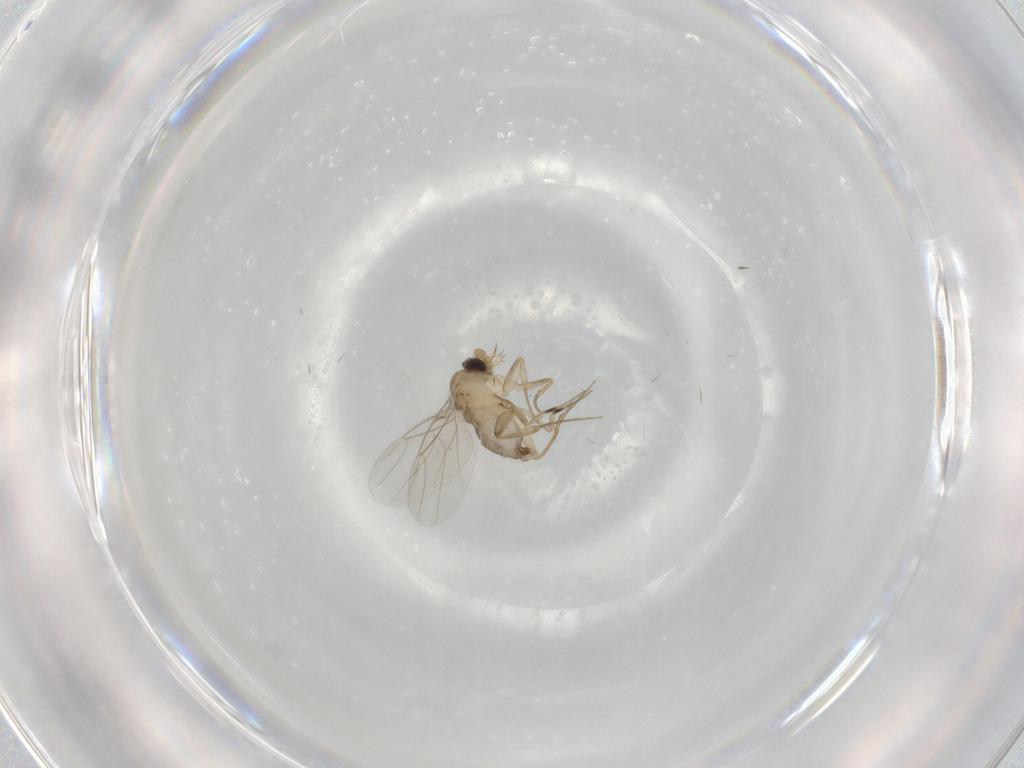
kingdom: Animalia
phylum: Arthropoda
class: Insecta
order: Diptera
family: Phoridae
